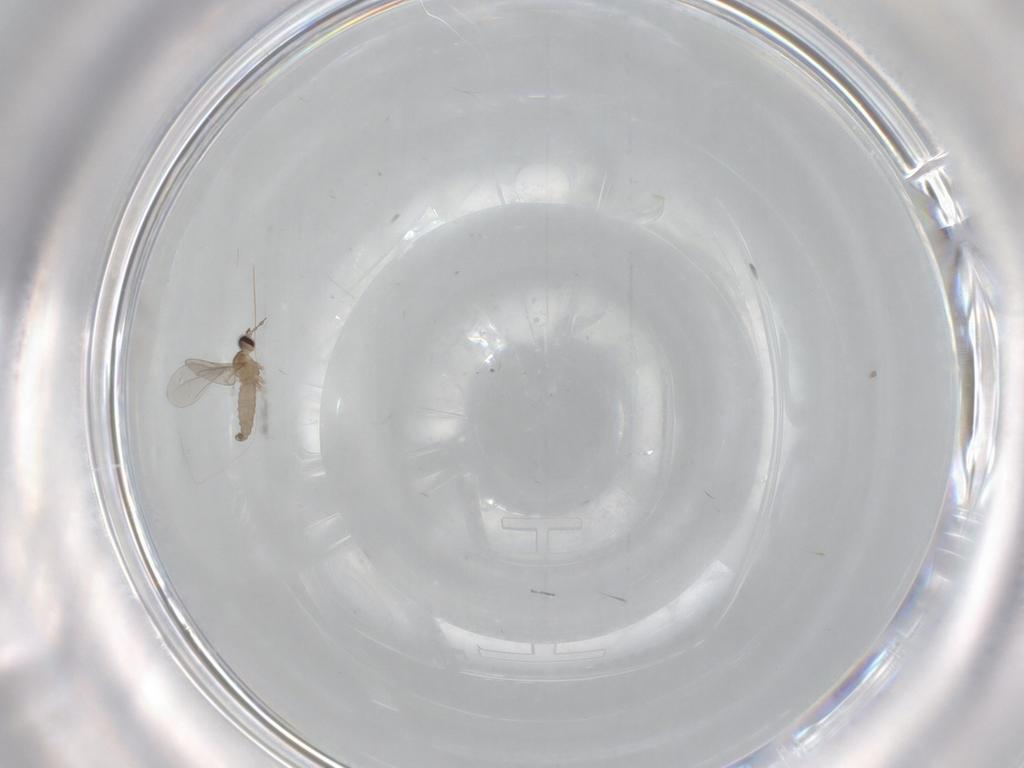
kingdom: Animalia
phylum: Arthropoda
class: Insecta
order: Diptera
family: Cecidomyiidae
